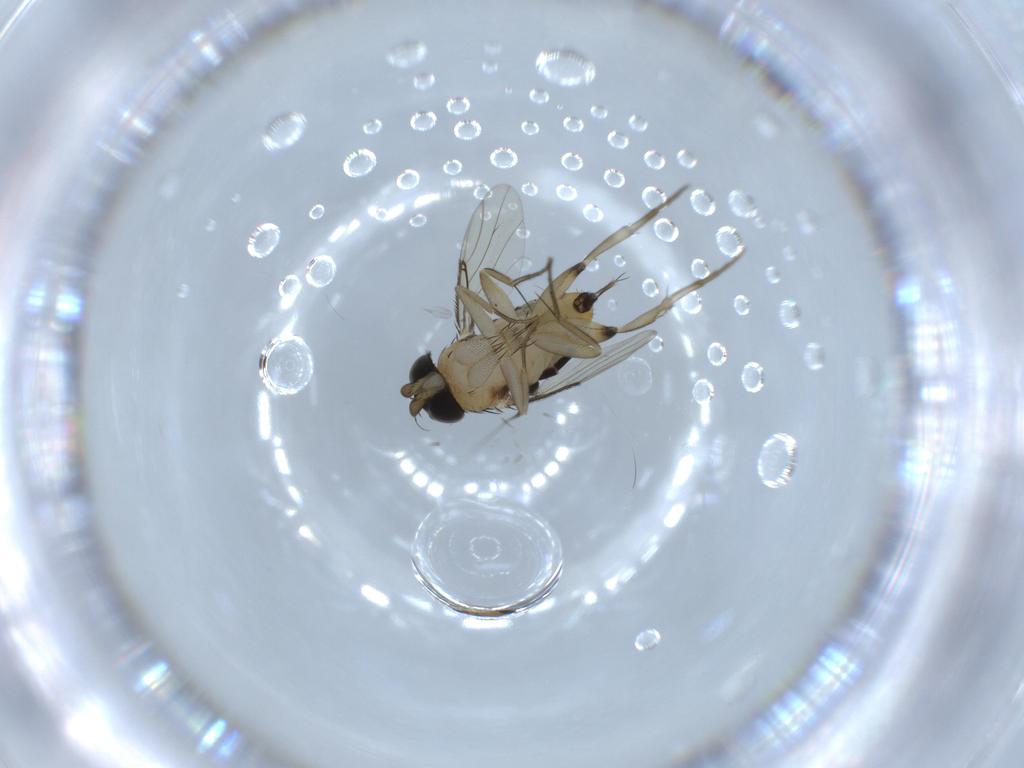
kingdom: Animalia
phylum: Arthropoda
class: Insecta
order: Diptera
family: Phoridae
